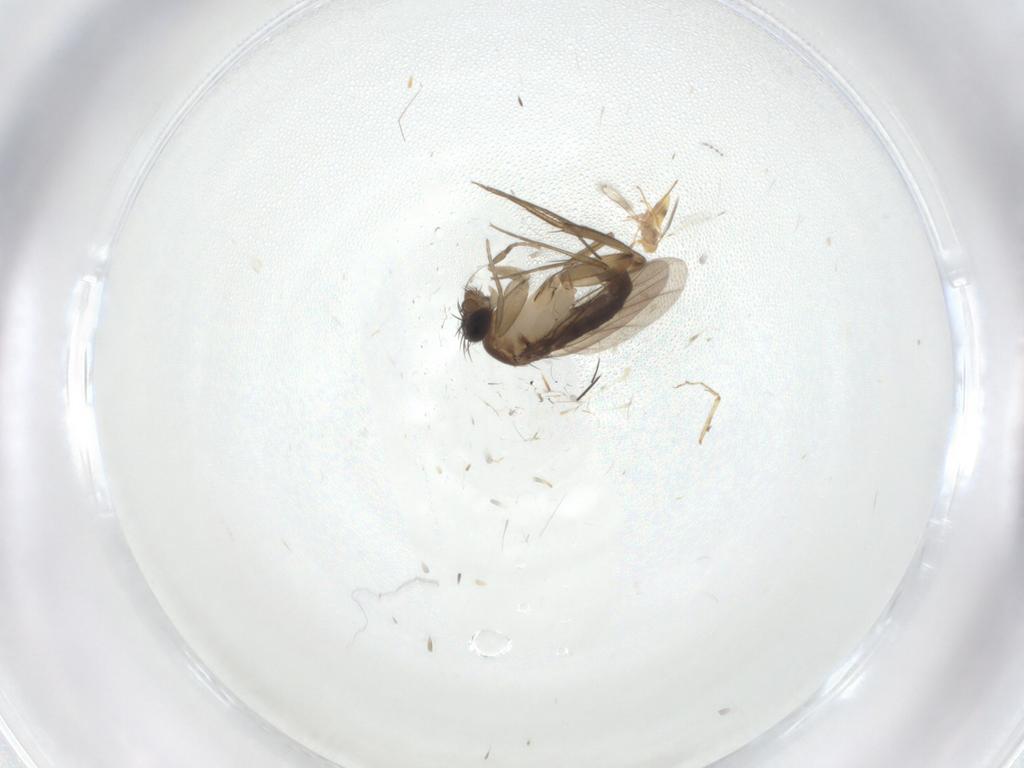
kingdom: Animalia
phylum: Arthropoda
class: Insecta
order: Diptera
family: Phoridae
